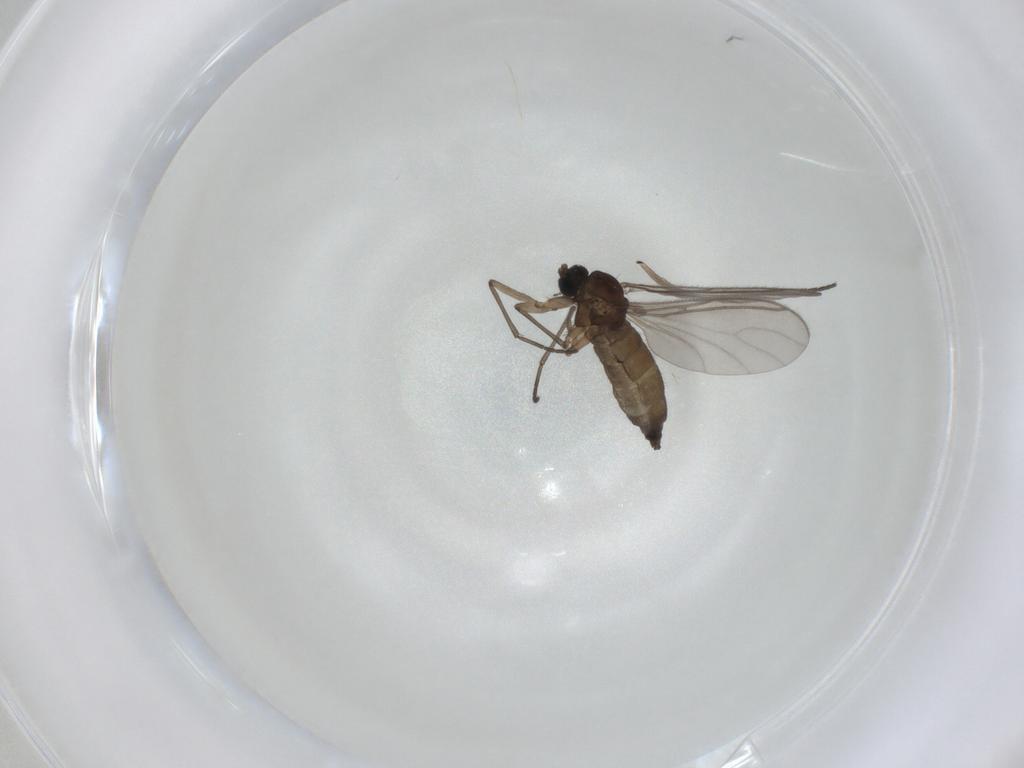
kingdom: Animalia
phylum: Arthropoda
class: Insecta
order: Diptera
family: Sciaridae
